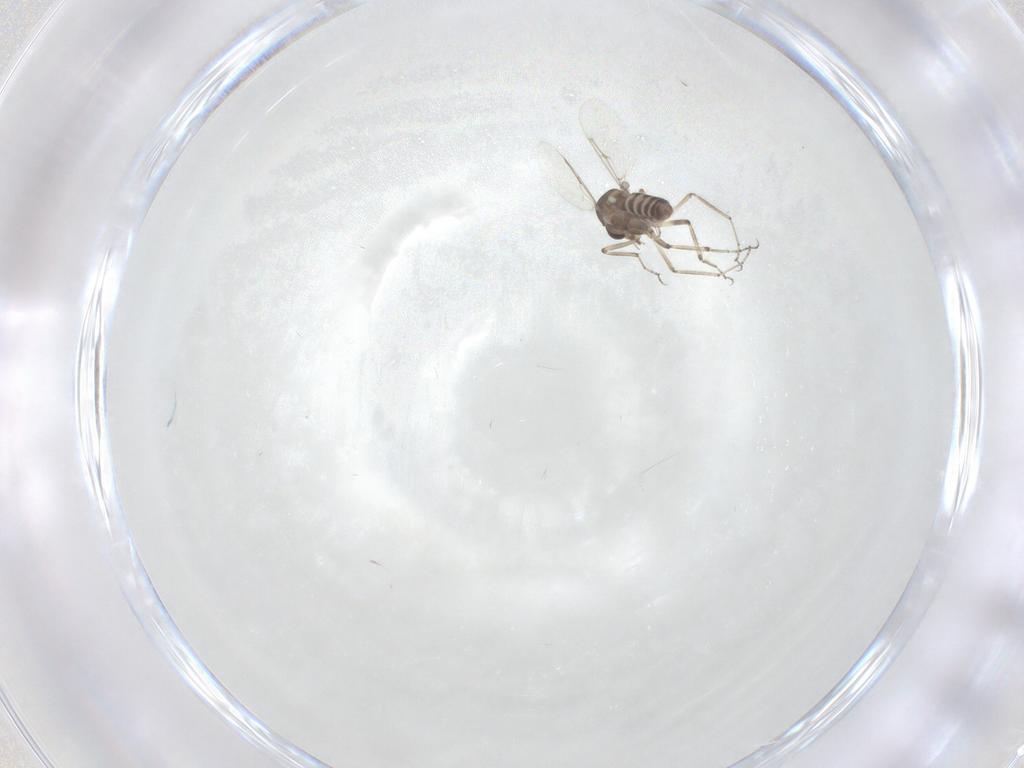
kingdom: Animalia
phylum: Arthropoda
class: Insecta
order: Diptera
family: Ceratopogonidae
